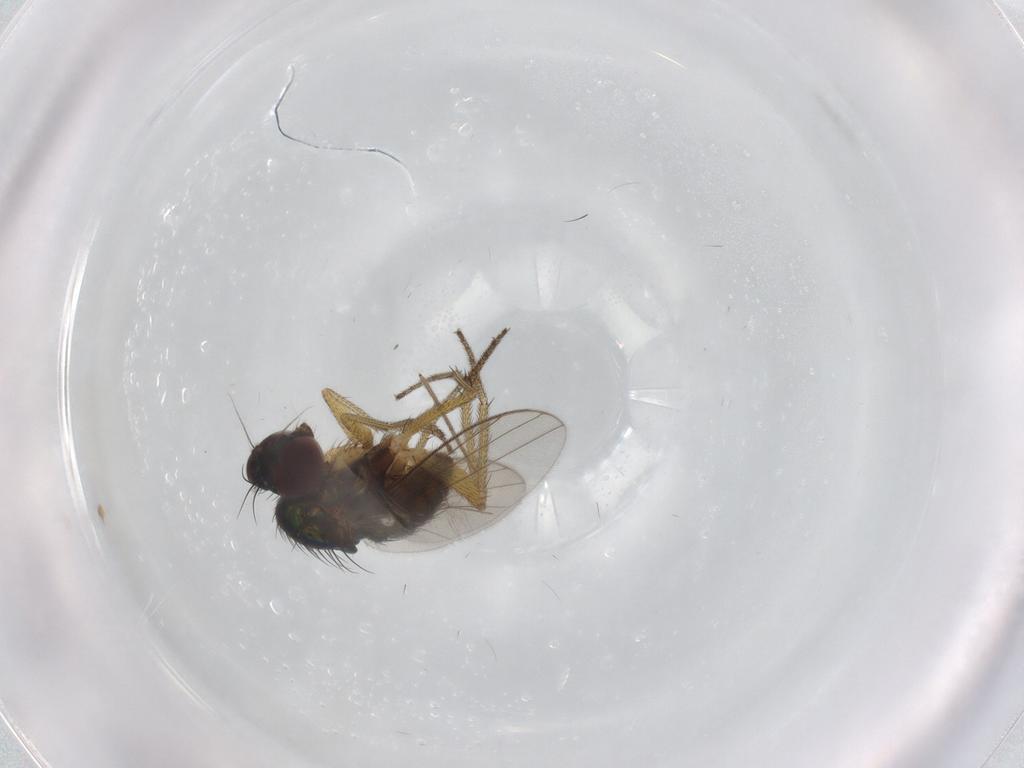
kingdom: Animalia
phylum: Arthropoda
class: Insecta
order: Diptera
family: Chironomidae
